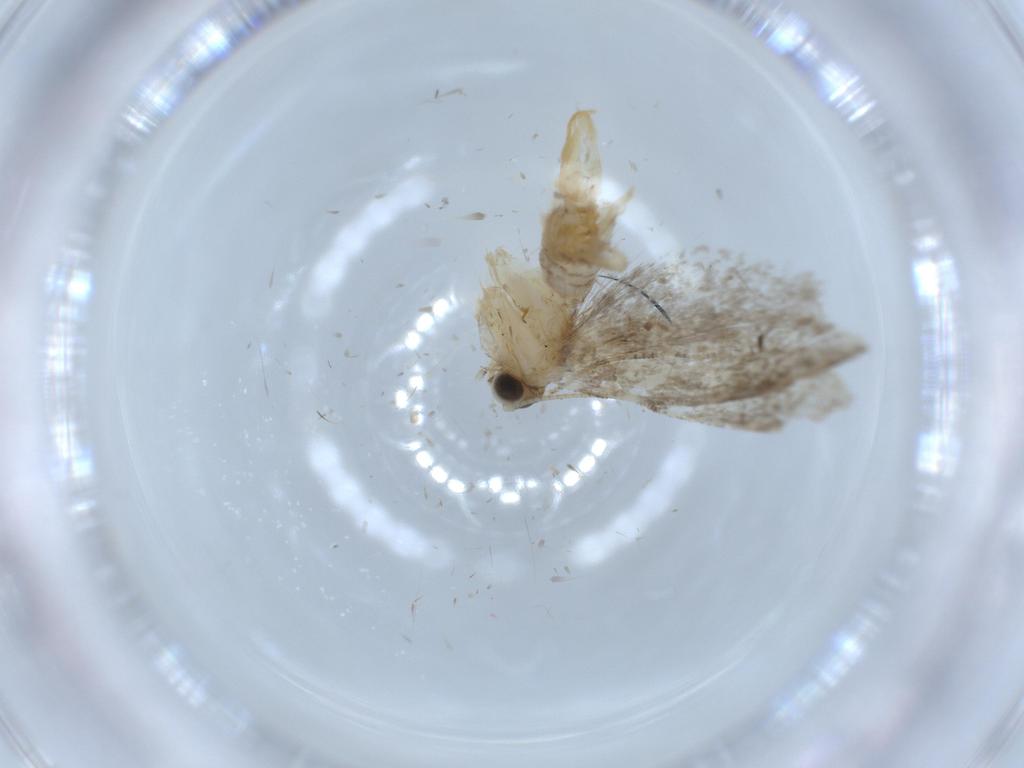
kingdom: Animalia
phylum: Arthropoda
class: Insecta
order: Lepidoptera
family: Tineidae
